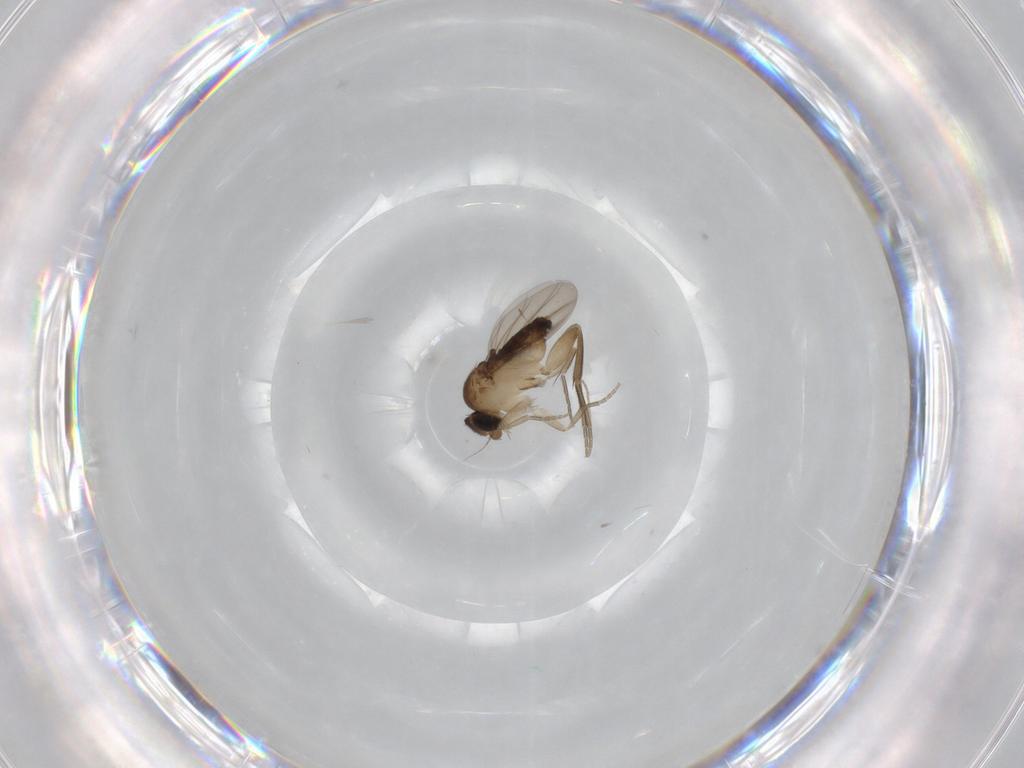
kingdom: Animalia
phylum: Arthropoda
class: Insecta
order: Diptera
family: Phoridae
